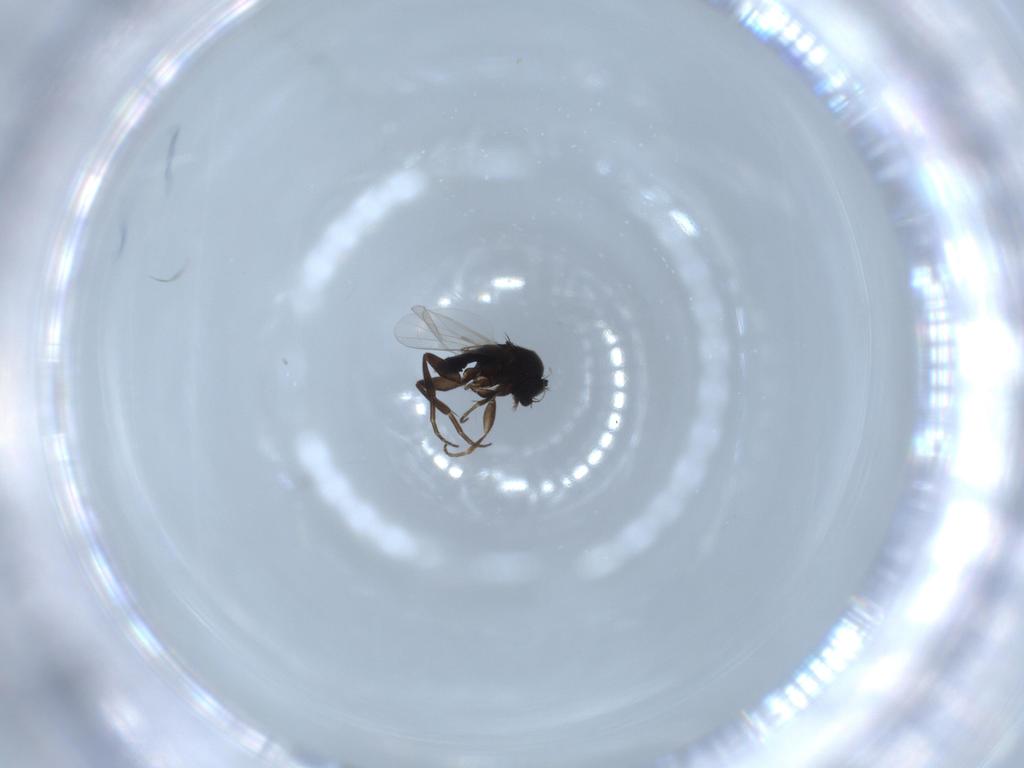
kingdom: Animalia
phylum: Arthropoda
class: Insecta
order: Diptera
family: Phoridae
